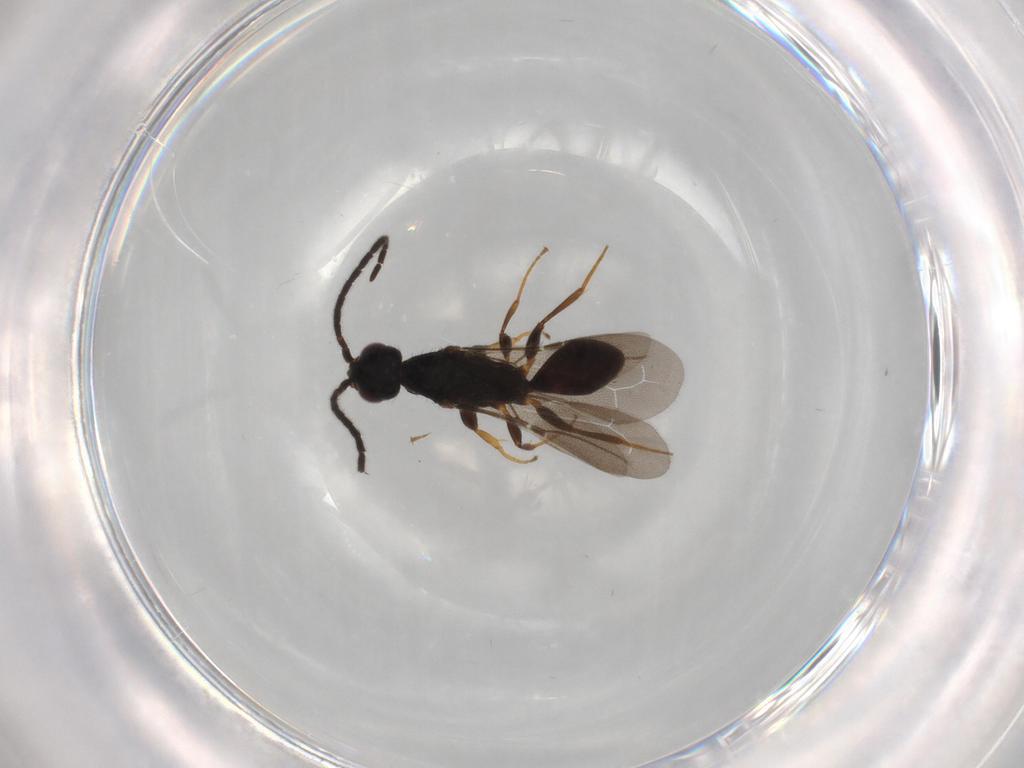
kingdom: Animalia
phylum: Arthropoda
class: Insecta
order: Hymenoptera
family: Bethylidae
